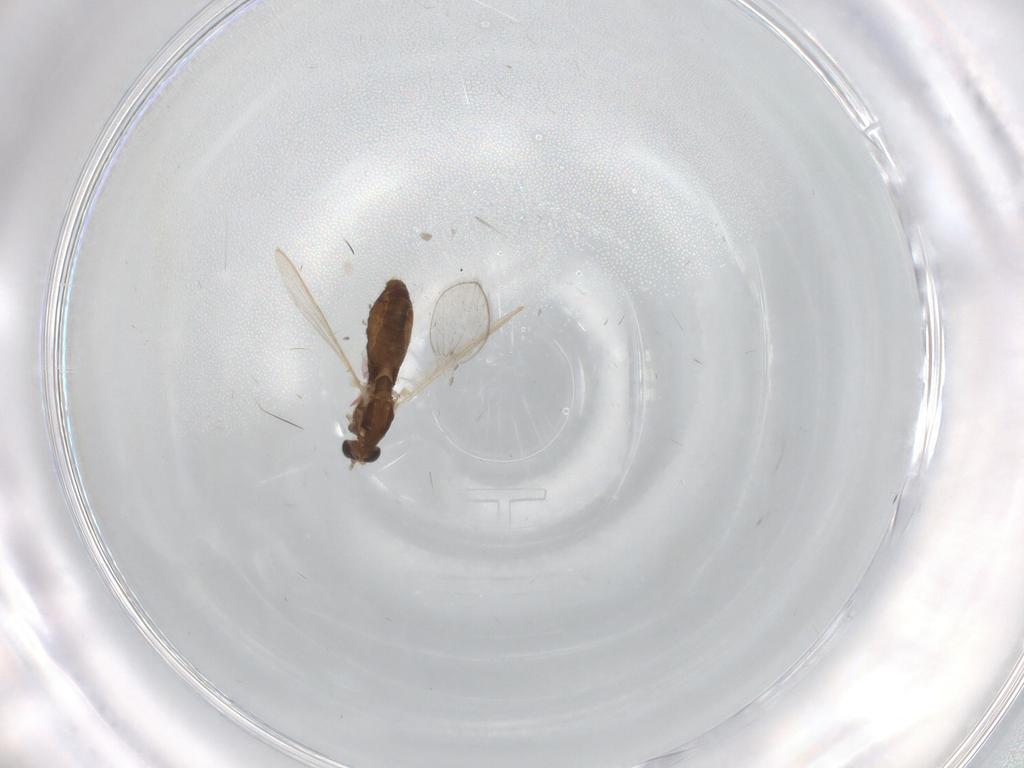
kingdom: Animalia
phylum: Arthropoda
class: Insecta
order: Diptera
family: Chironomidae
